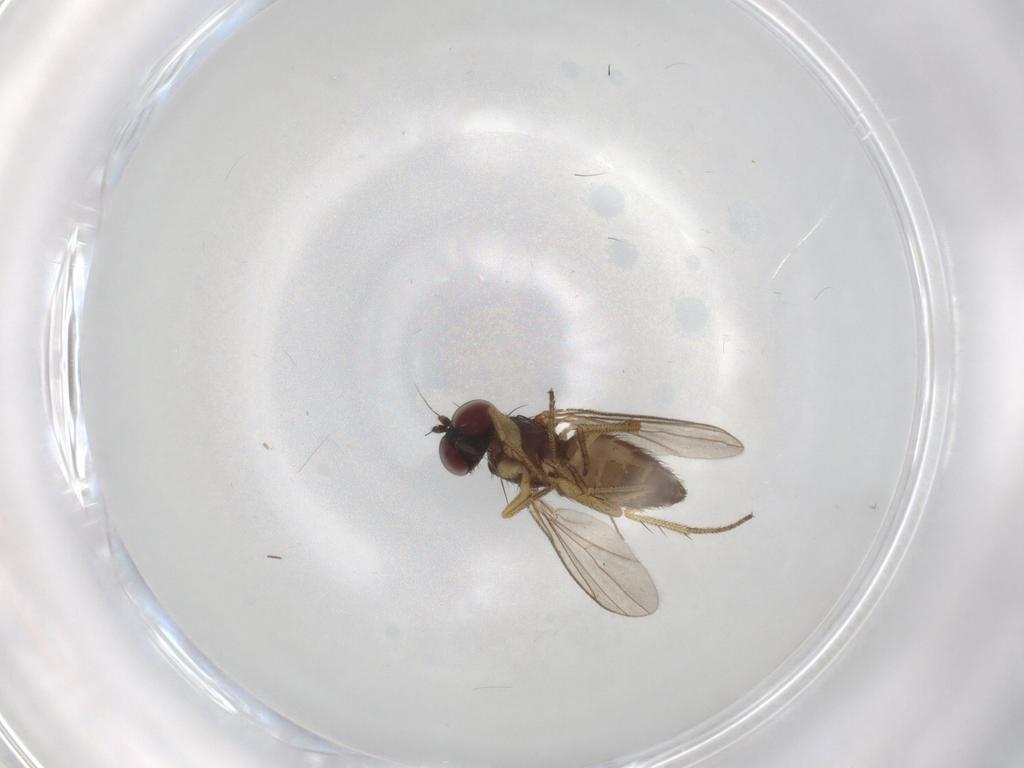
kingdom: Animalia
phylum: Arthropoda
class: Insecta
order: Diptera
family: Dolichopodidae
